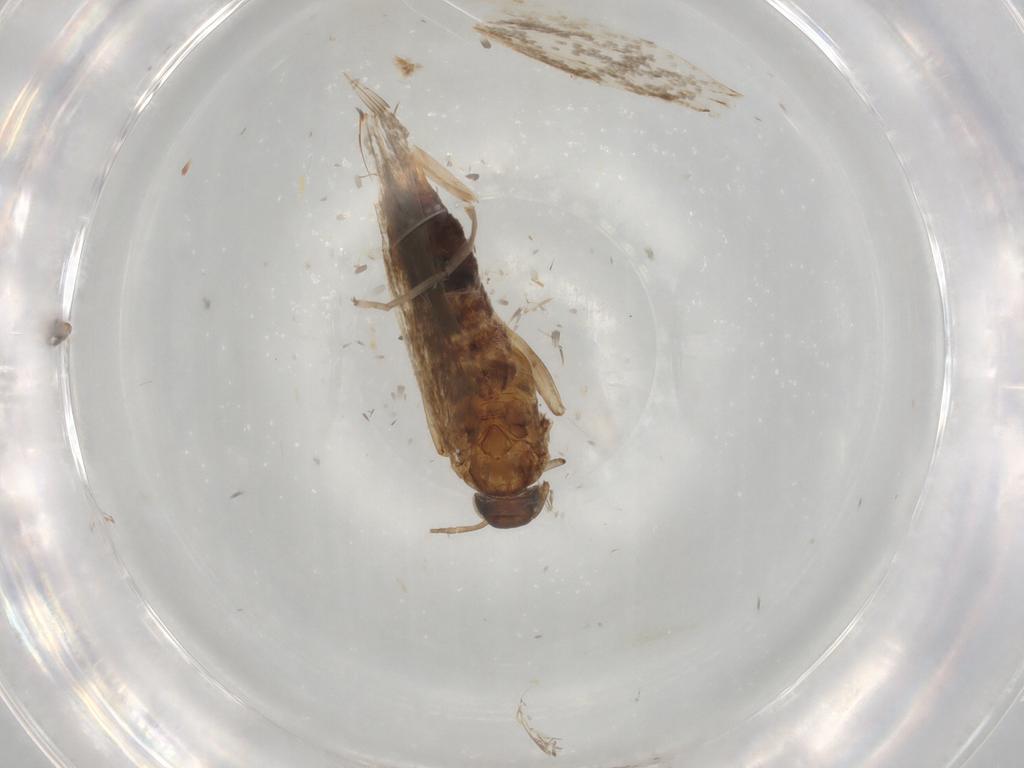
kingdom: Animalia
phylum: Arthropoda
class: Insecta
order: Lepidoptera
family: Gelechiidae
